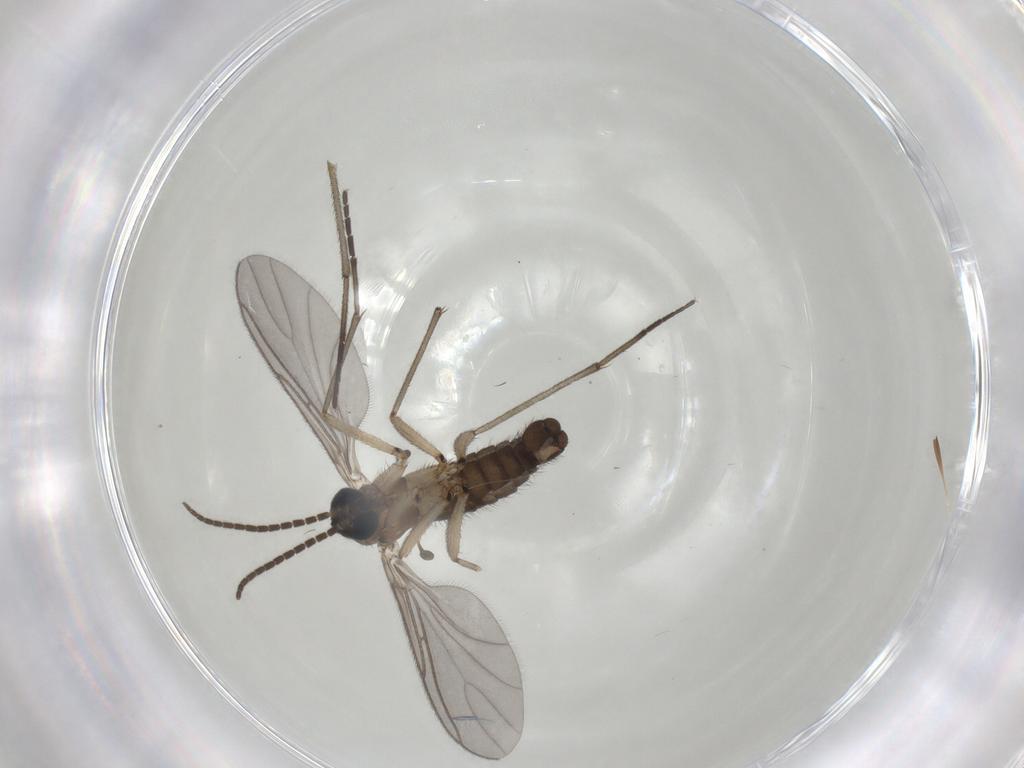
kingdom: Animalia
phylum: Arthropoda
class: Insecta
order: Diptera
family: Sciaridae
